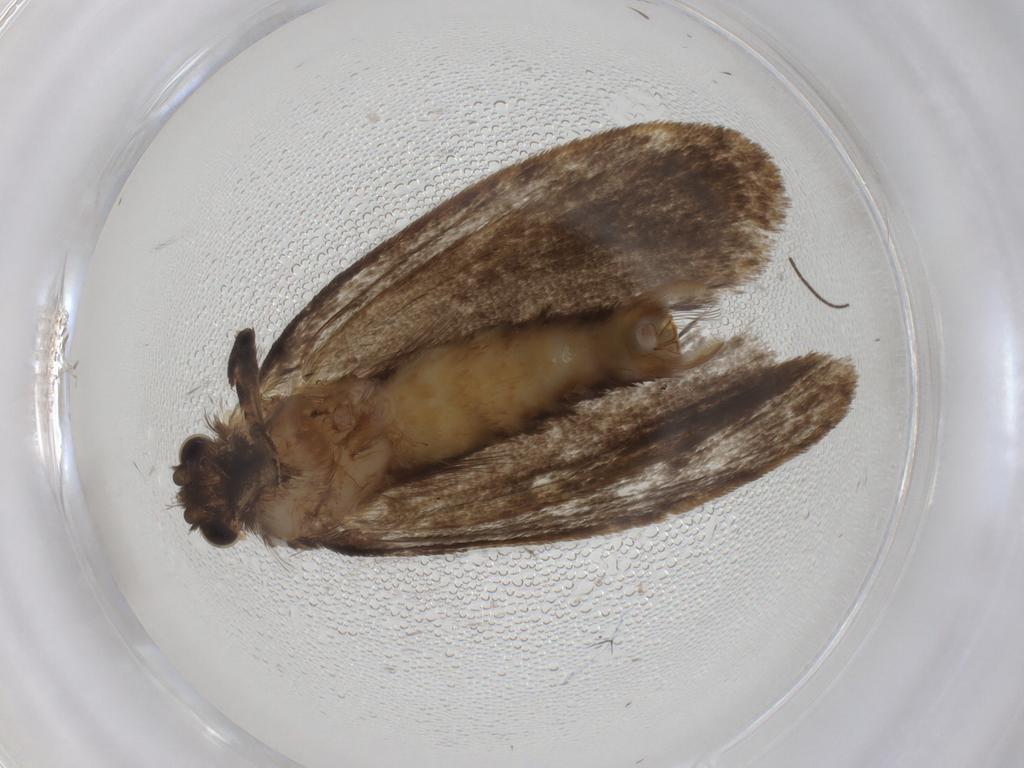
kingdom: Animalia
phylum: Arthropoda
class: Insecta
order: Lepidoptera
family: Tineidae
